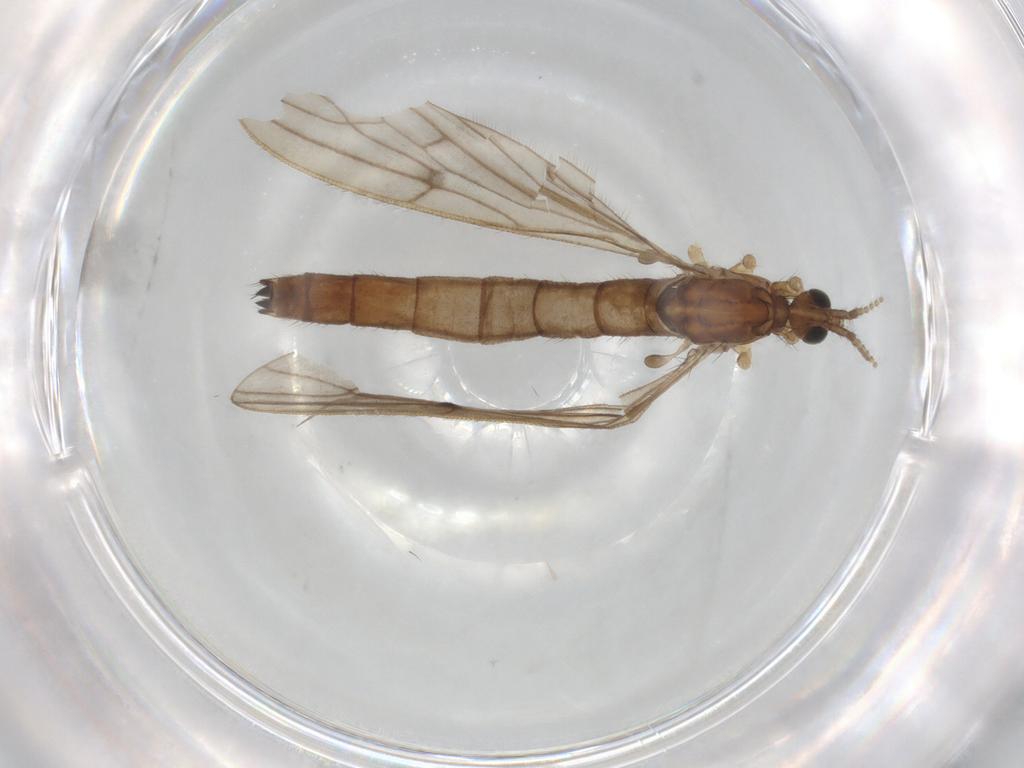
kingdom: Animalia
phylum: Arthropoda
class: Insecta
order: Diptera
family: Limoniidae
